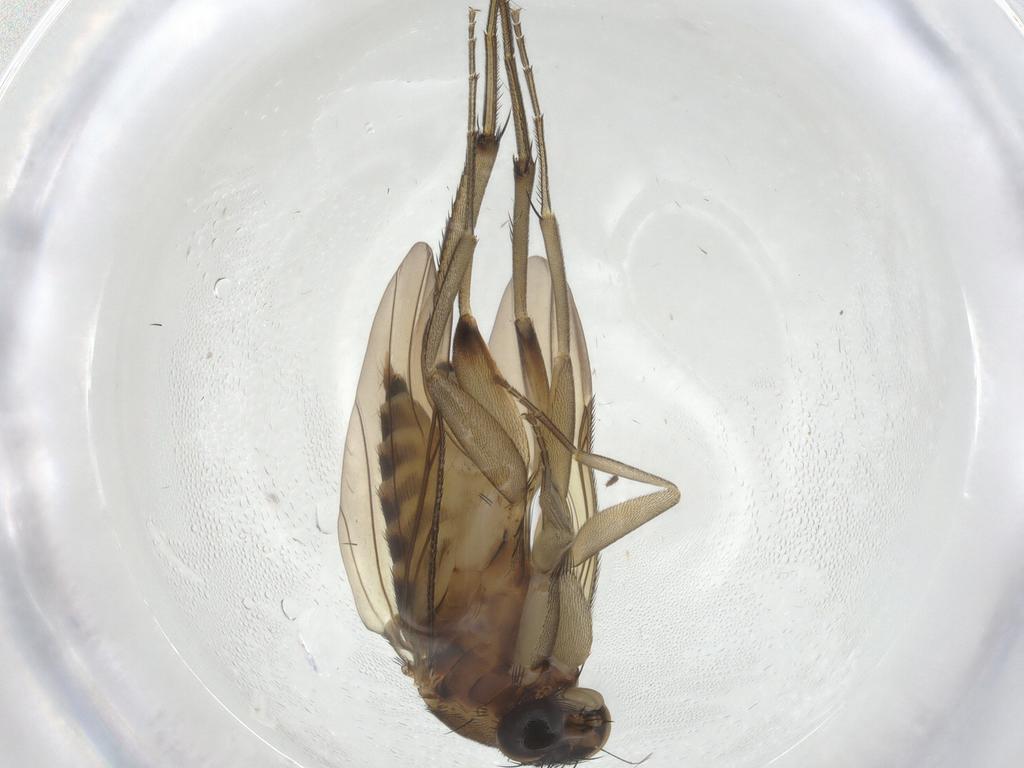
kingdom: Animalia
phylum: Arthropoda
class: Insecta
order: Diptera
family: Phoridae
